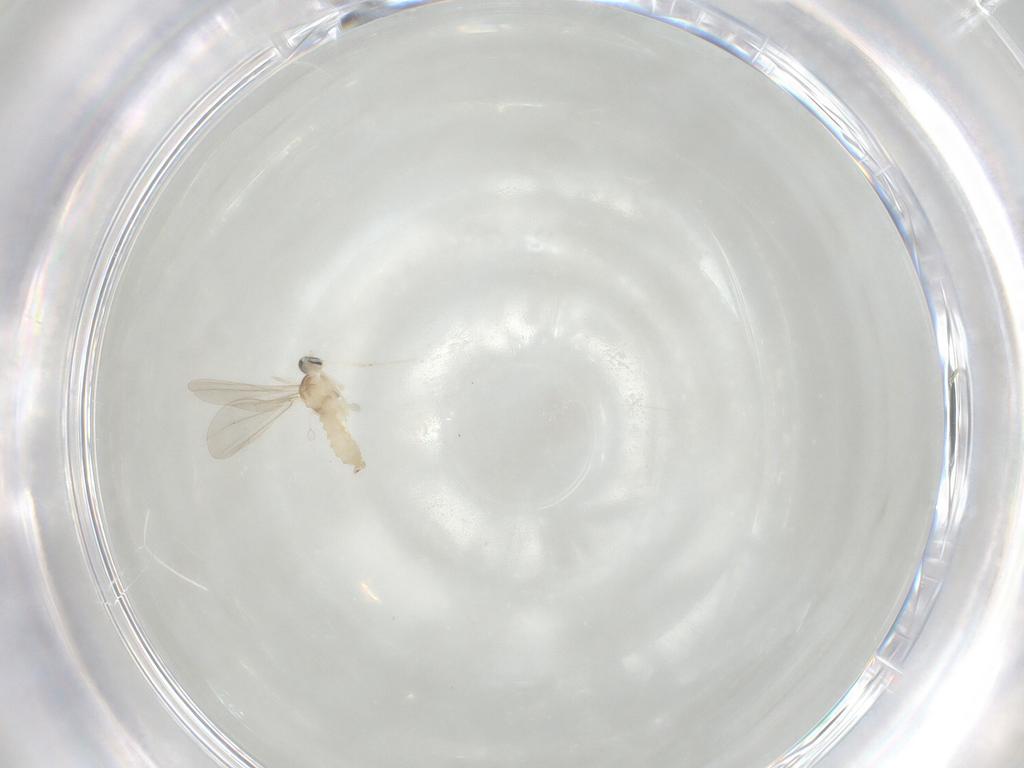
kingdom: Animalia
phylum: Arthropoda
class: Insecta
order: Diptera
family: Cecidomyiidae
